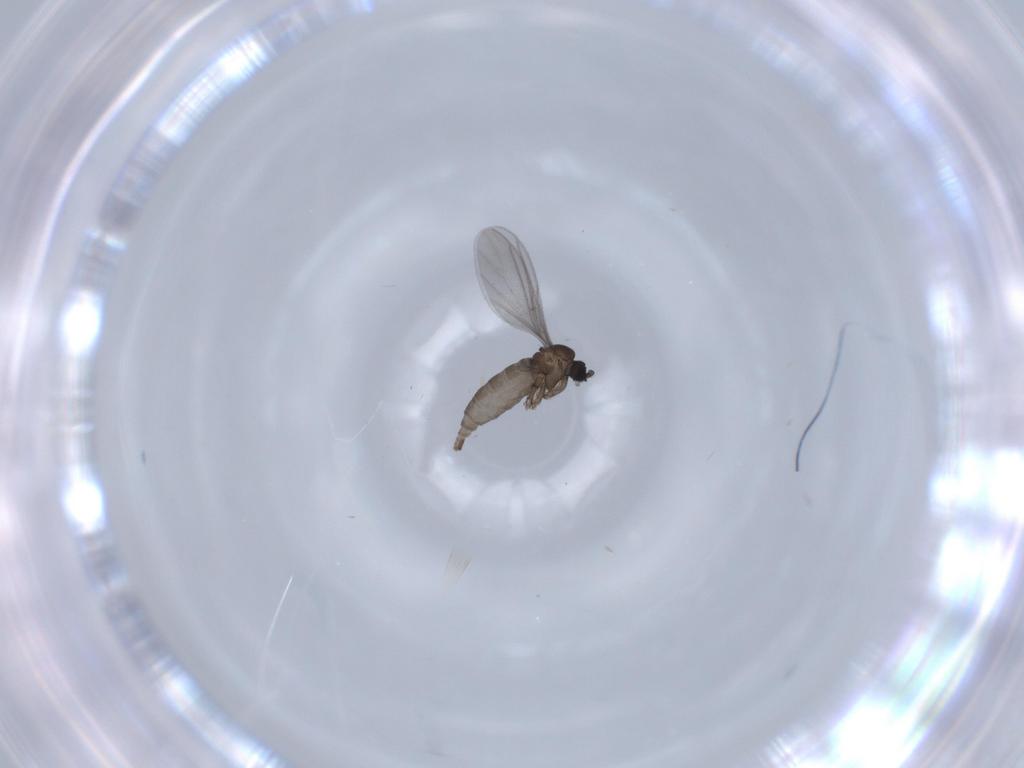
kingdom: Animalia
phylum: Arthropoda
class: Insecta
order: Diptera
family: Sciaridae
